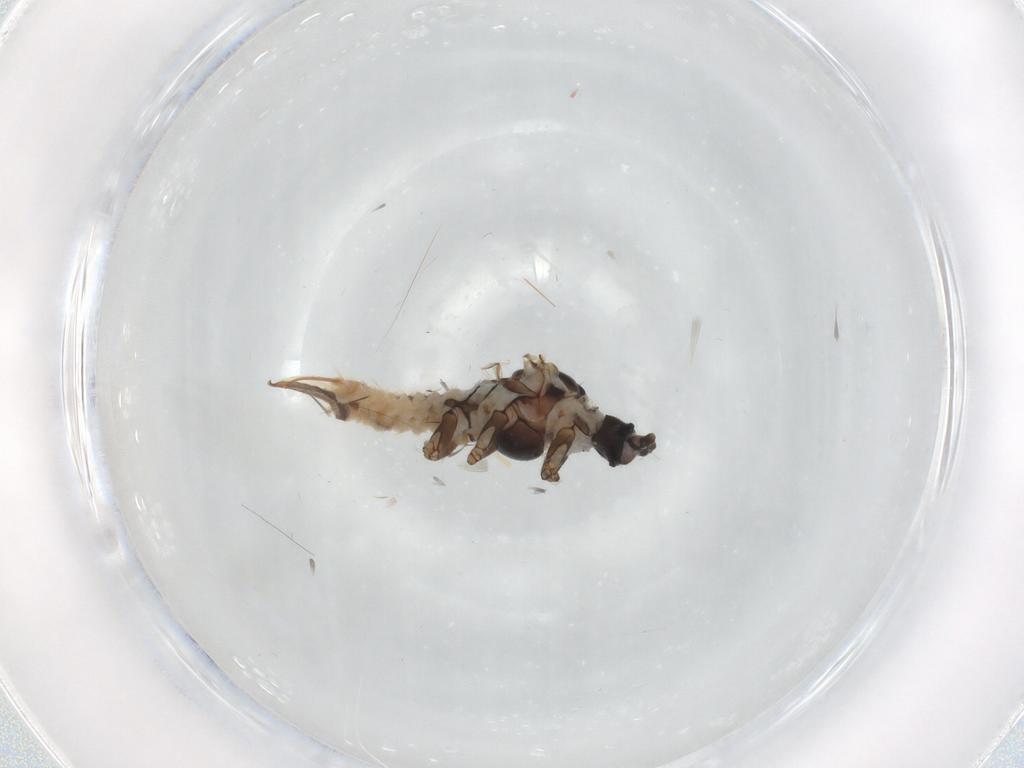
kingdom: Animalia
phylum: Arthropoda
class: Insecta
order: Hemiptera
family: Putoidae
